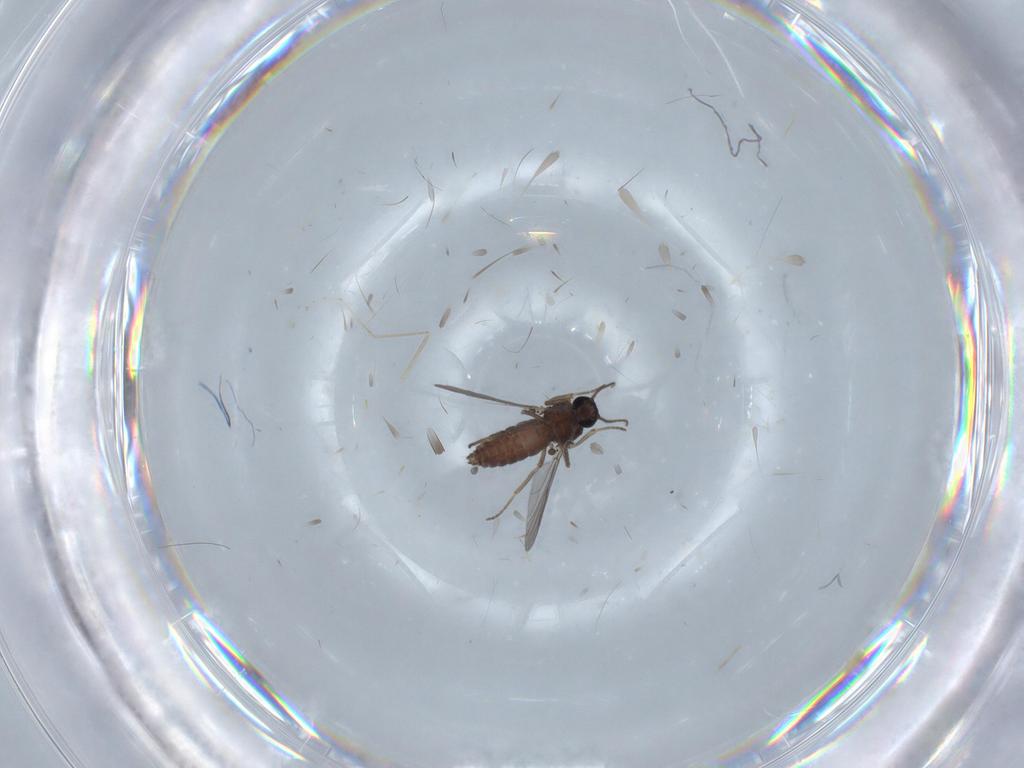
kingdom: Animalia
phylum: Arthropoda
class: Insecta
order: Diptera
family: Ceratopogonidae
